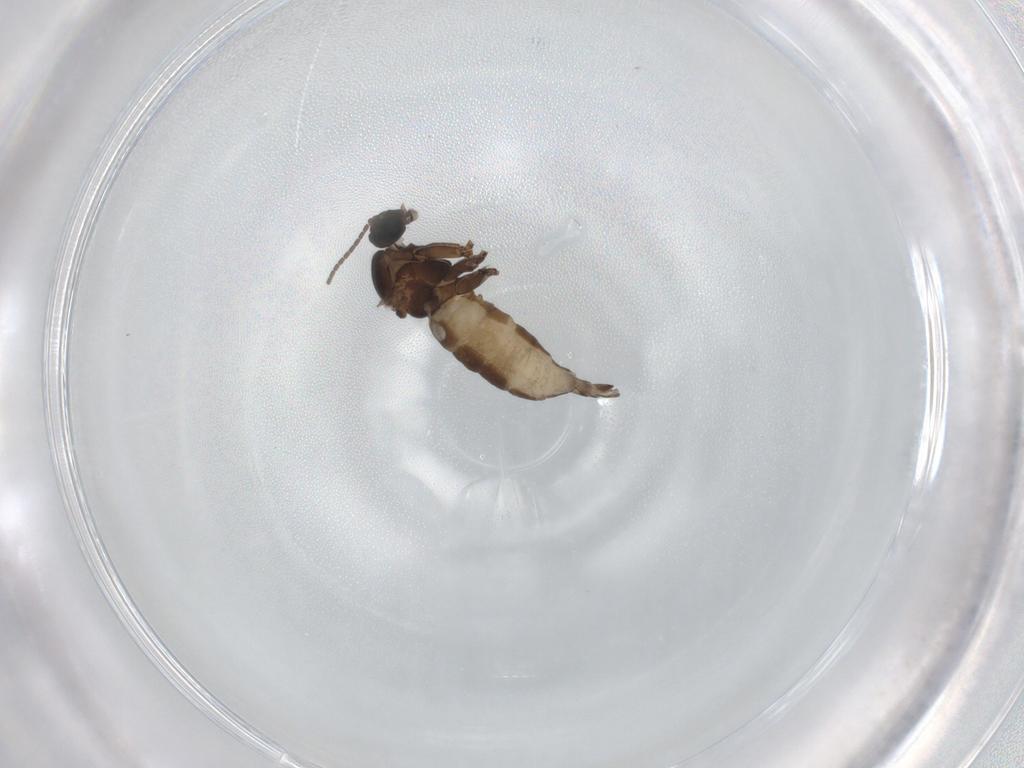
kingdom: Animalia
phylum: Arthropoda
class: Insecta
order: Diptera
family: Sciaridae
